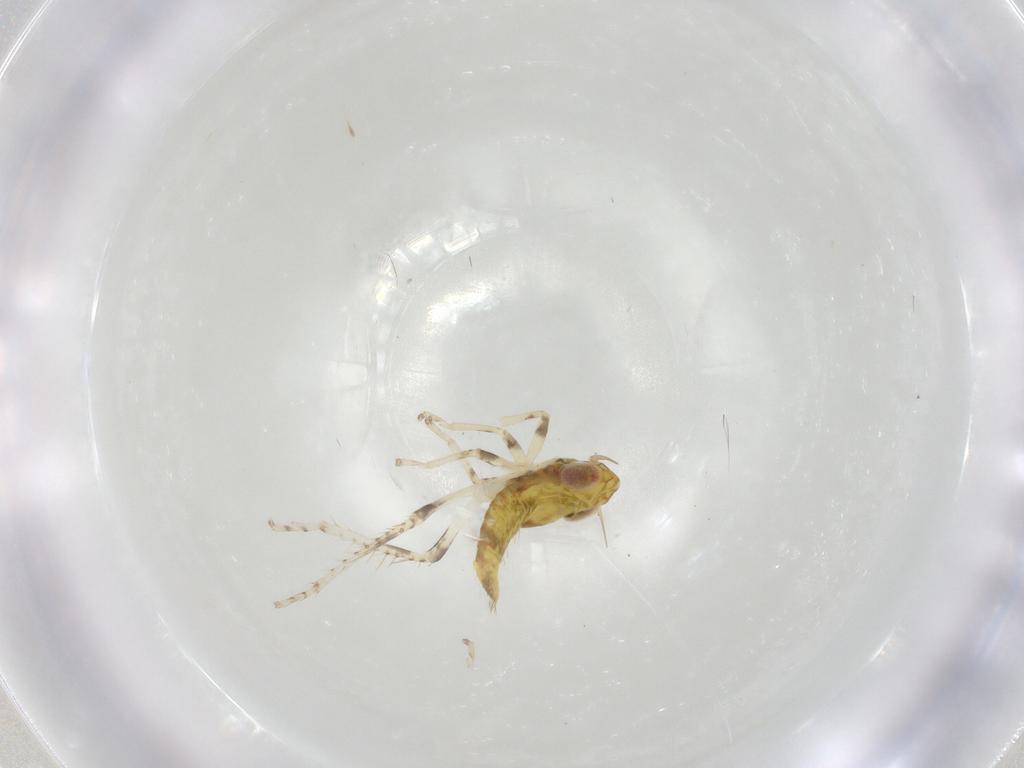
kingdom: Animalia
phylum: Arthropoda
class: Insecta
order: Hemiptera
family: Cicadellidae
